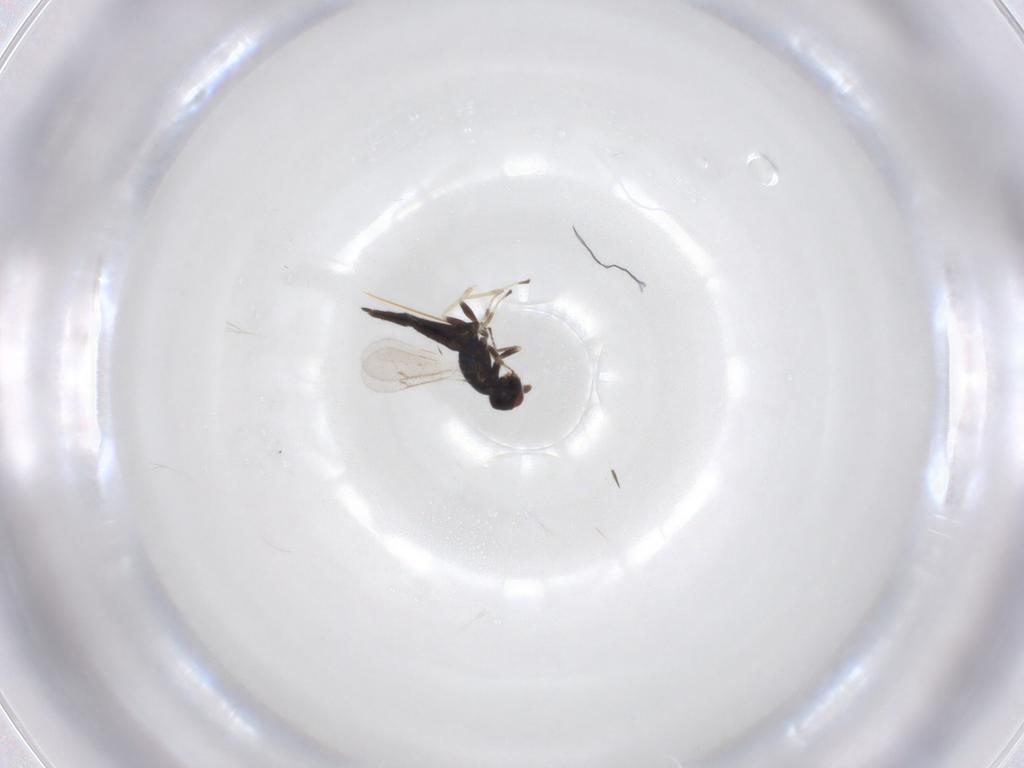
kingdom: Animalia
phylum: Arthropoda
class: Insecta
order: Hymenoptera
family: Eulophidae
